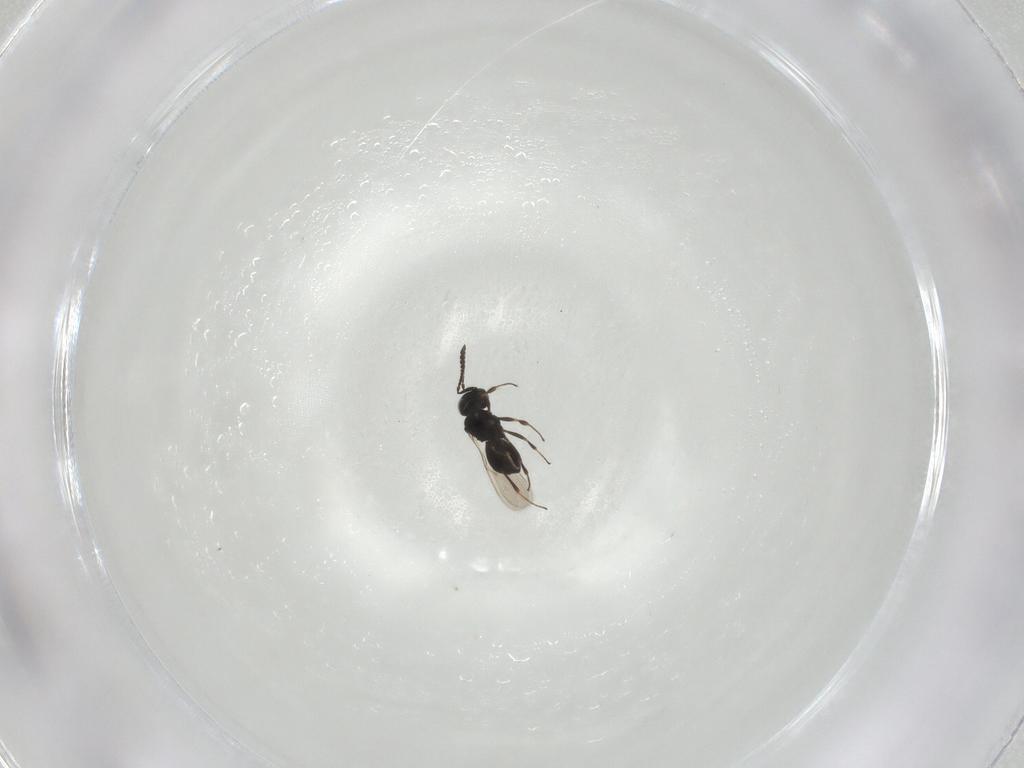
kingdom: Animalia
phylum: Arthropoda
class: Insecta
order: Hymenoptera
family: Scelionidae
